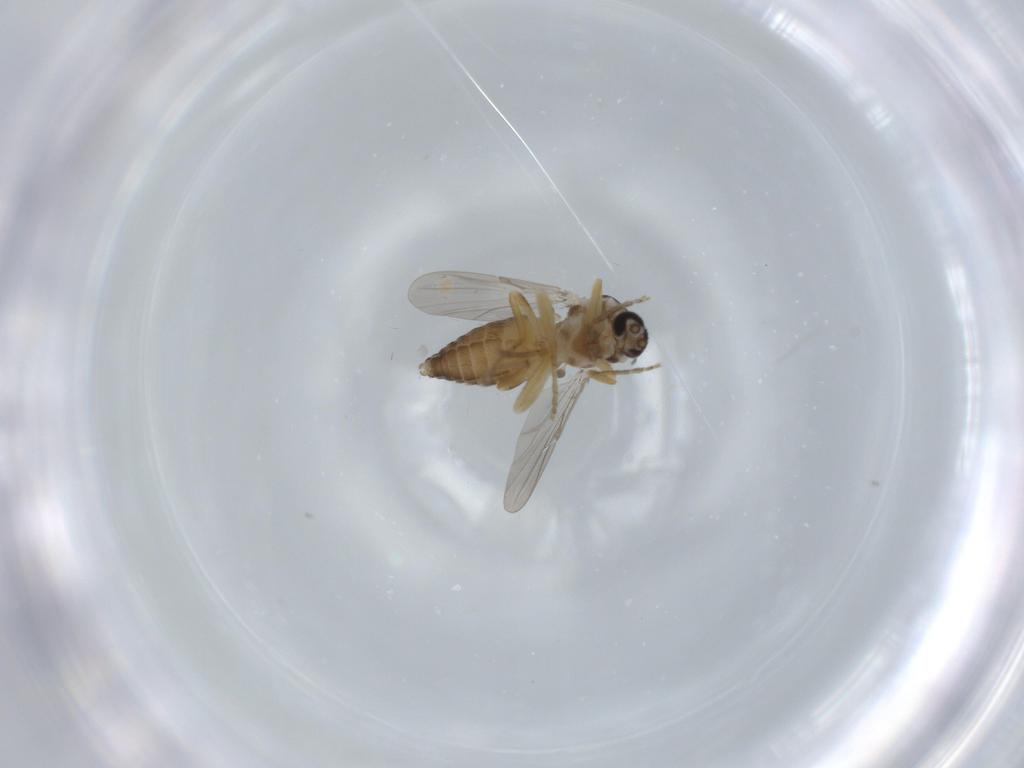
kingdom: Animalia
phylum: Arthropoda
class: Insecta
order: Diptera
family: Ceratopogonidae
